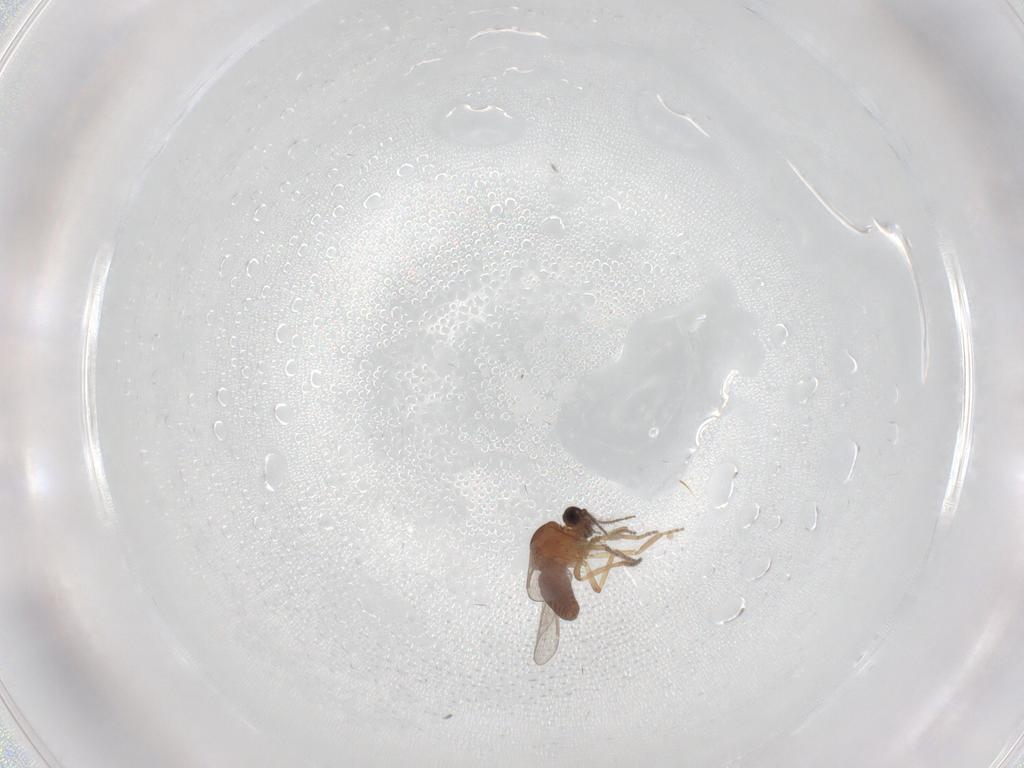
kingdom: Animalia
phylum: Arthropoda
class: Insecta
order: Diptera
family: Ceratopogonidae
